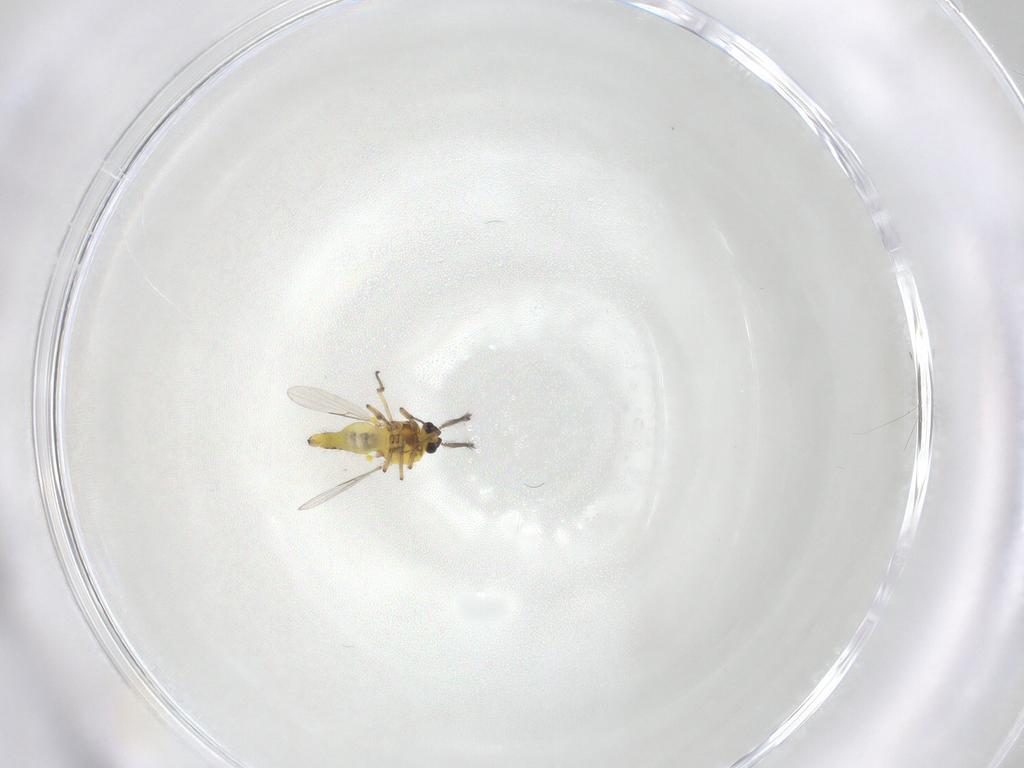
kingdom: Animalia
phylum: Arthropoda
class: Insecta
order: Diptera
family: Ceratopogonidae
